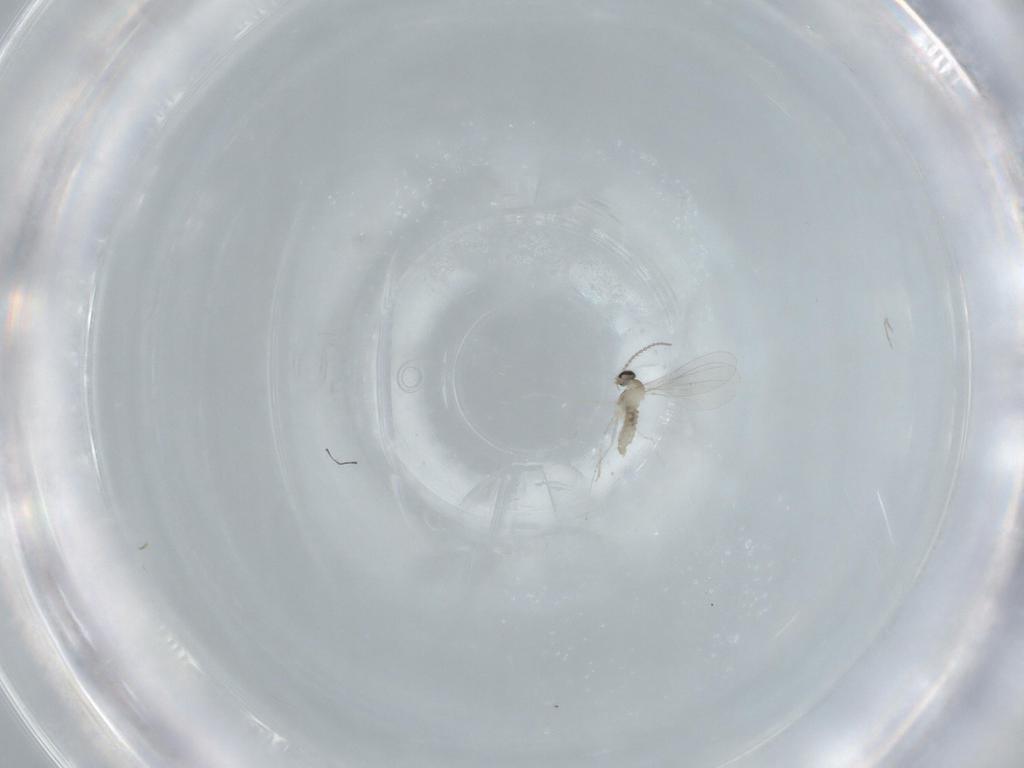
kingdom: Animalia
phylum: Arthropoda
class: Insecta
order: Diptera
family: Cecidomyiidae
